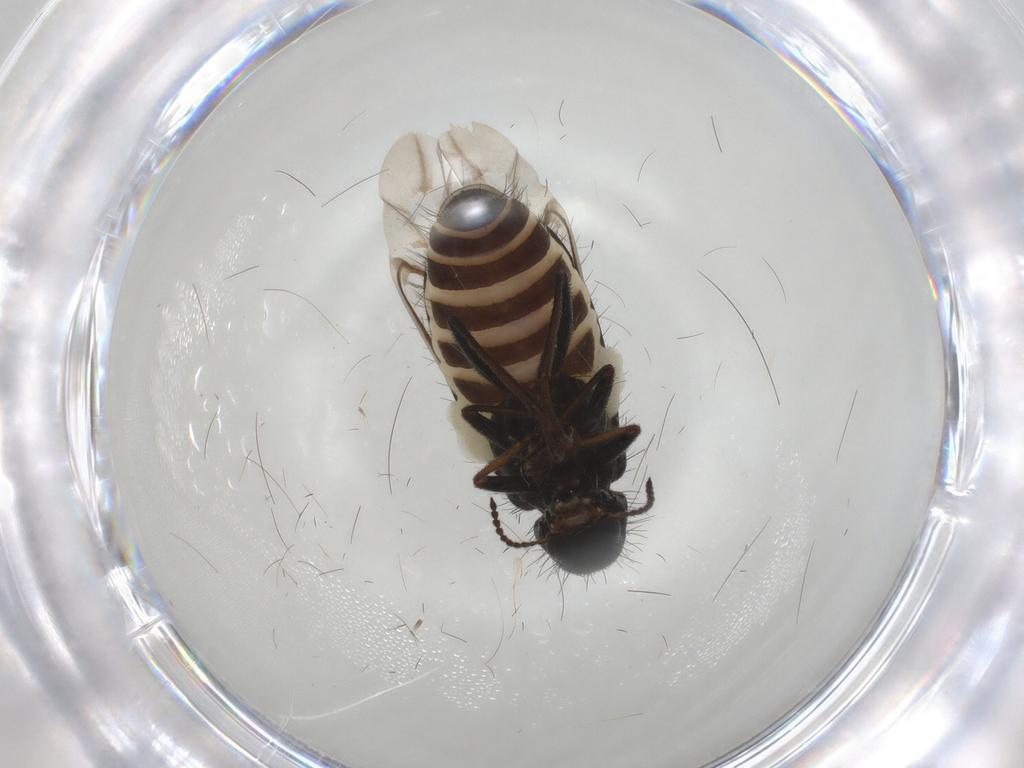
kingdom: Animalia
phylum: Arthropoda
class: Insecta
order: Coleoptera
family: Melyridae
